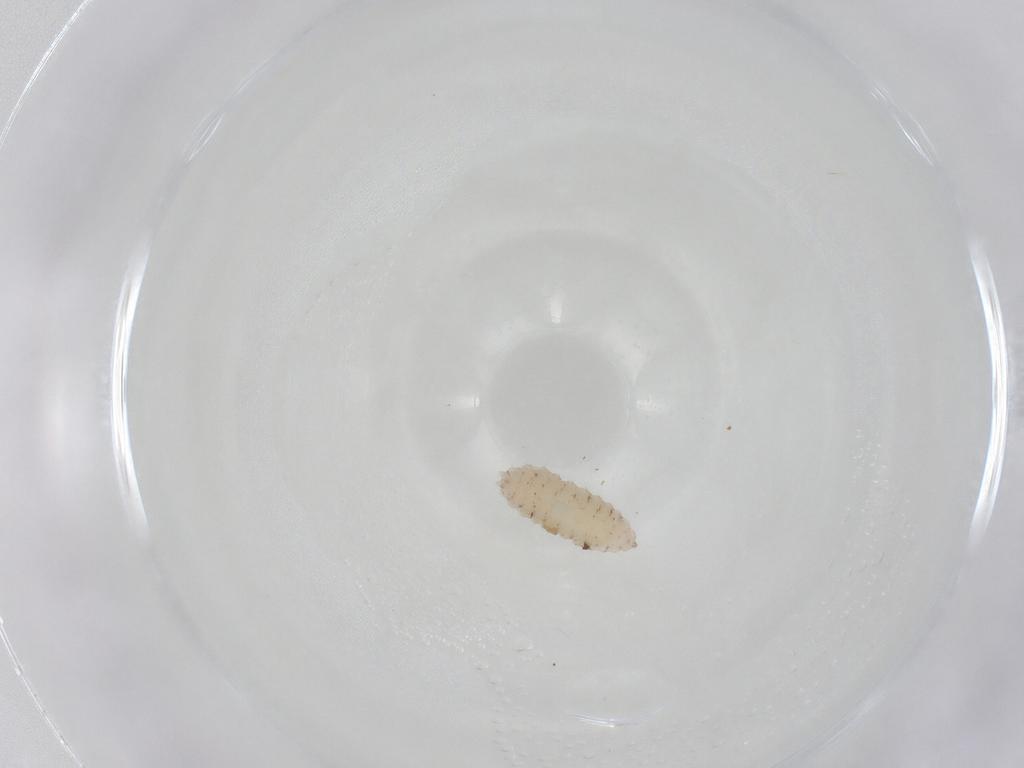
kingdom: Animalia
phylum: Arthropoda
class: Insecta
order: Diptera
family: Cecidomyiidae
